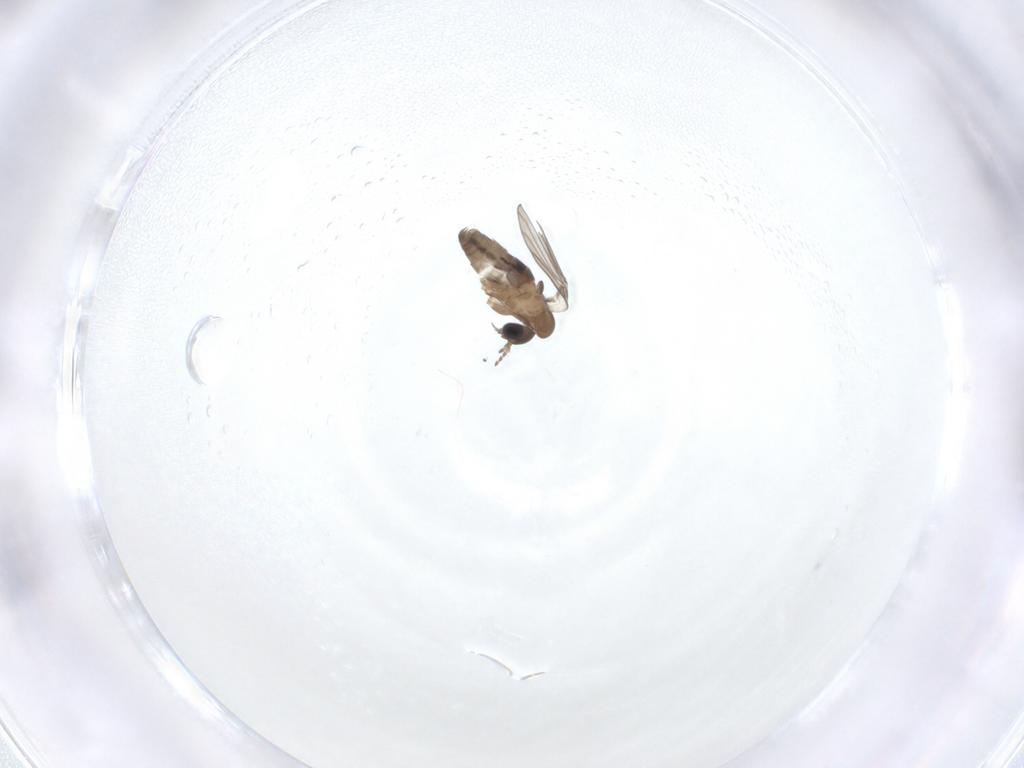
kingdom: Animalia
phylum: Arthropoda
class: Insecta
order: Diptera
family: Psychodidae
